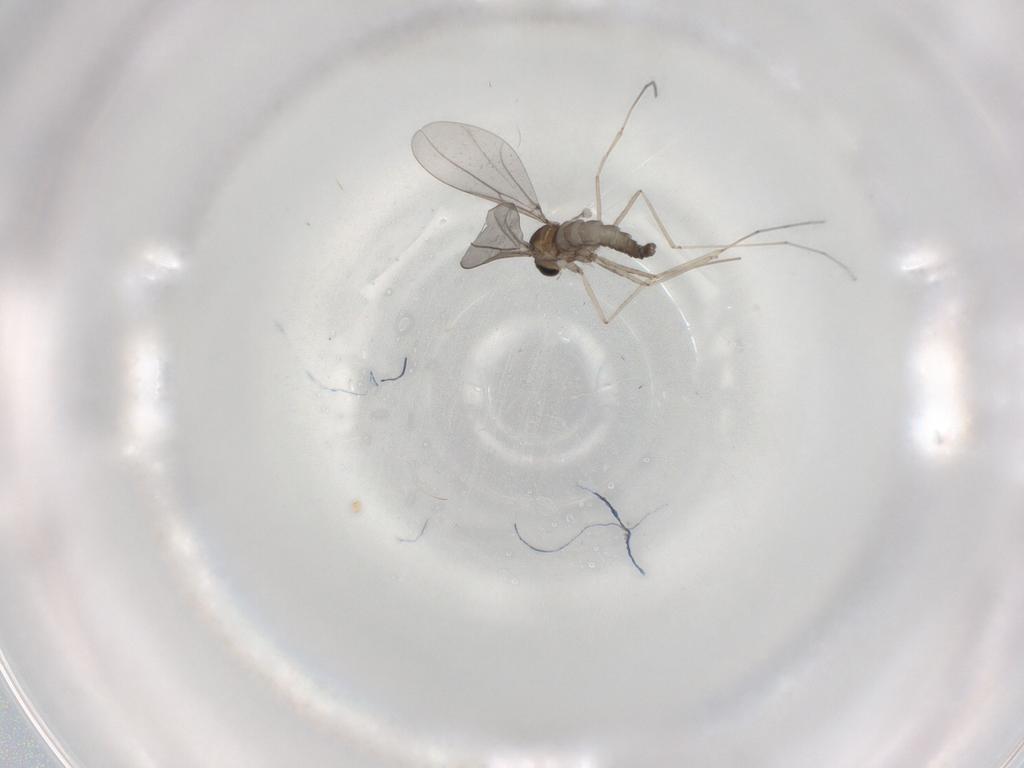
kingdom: Animalia
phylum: Arthropoda
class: Insecta
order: Diptera
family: Cecidomyiidae
